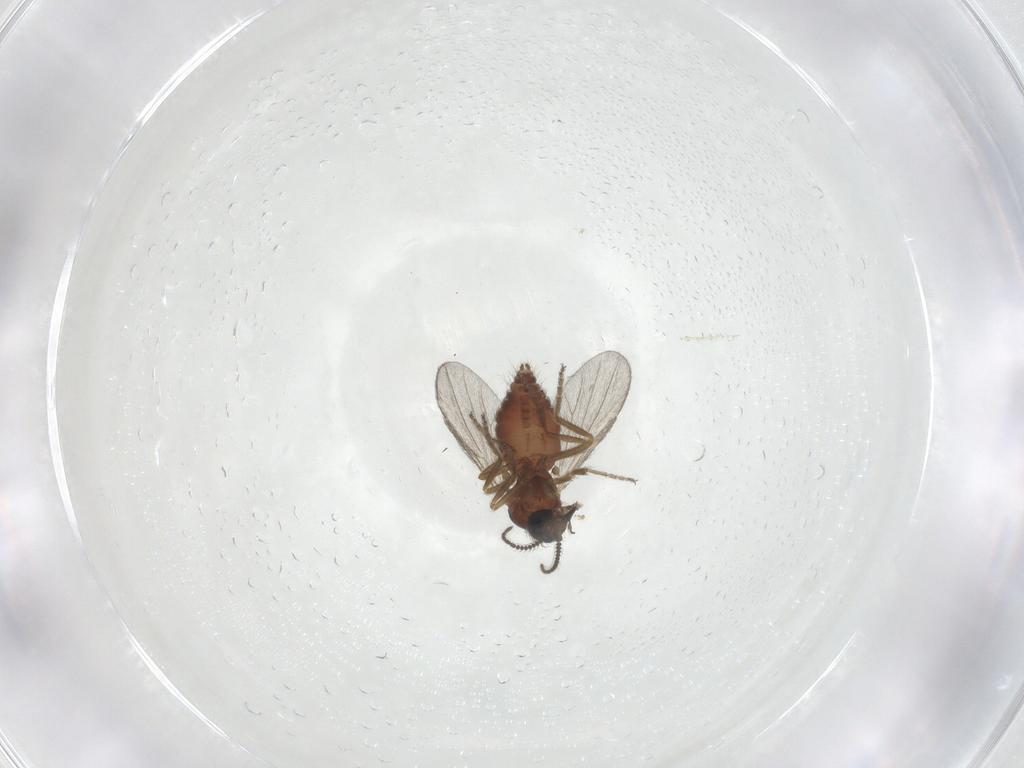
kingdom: Animalia
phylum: Arthropoda
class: Insecta
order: Diptera
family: Ceratopogonidae
